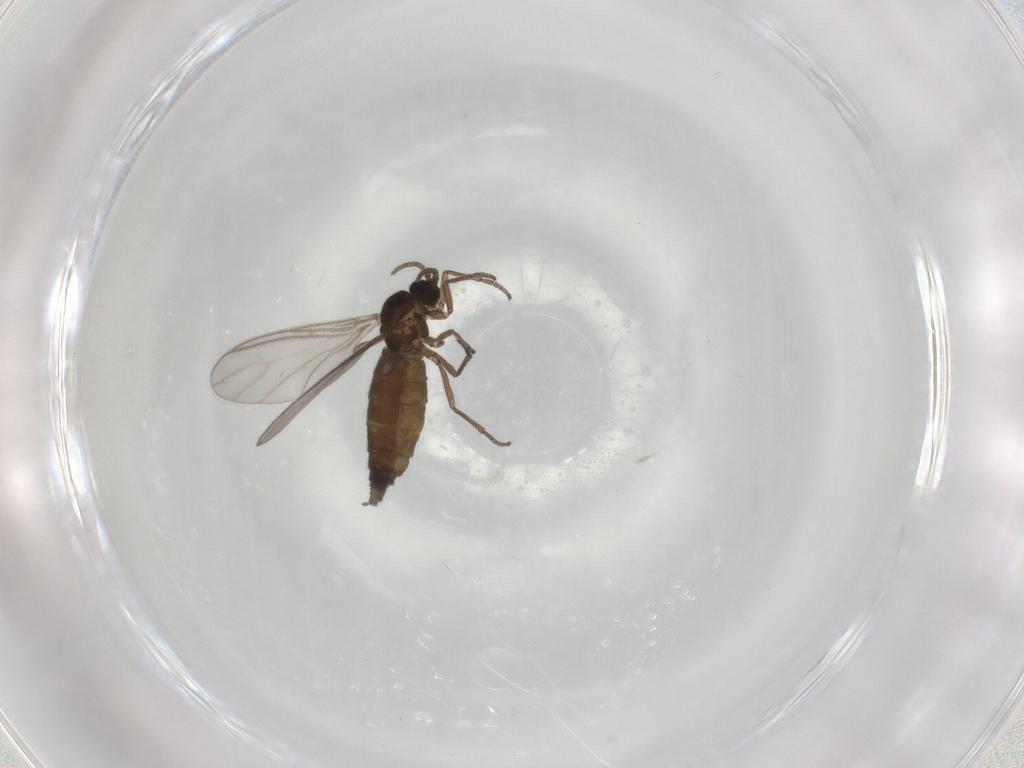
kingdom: Animalia
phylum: Arthropoda
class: Insecta
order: Diptera
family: Sciaridae
